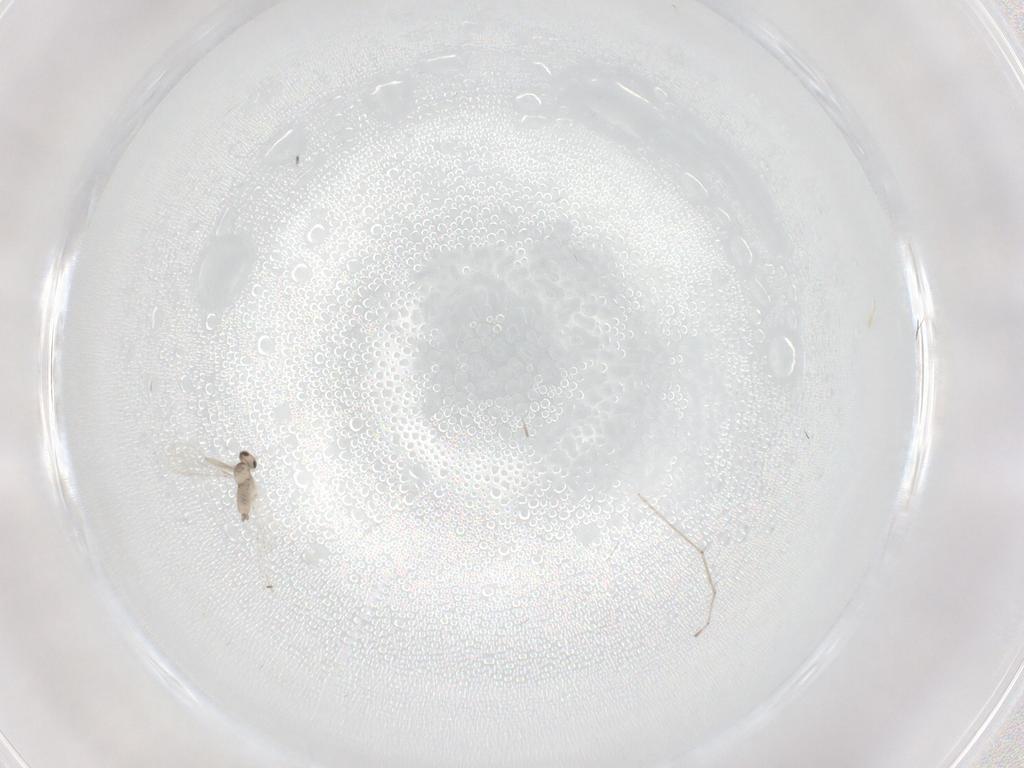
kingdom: Animalia
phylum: Arthropoda
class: Insecta
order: Diptera
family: Cecidomyiidae
